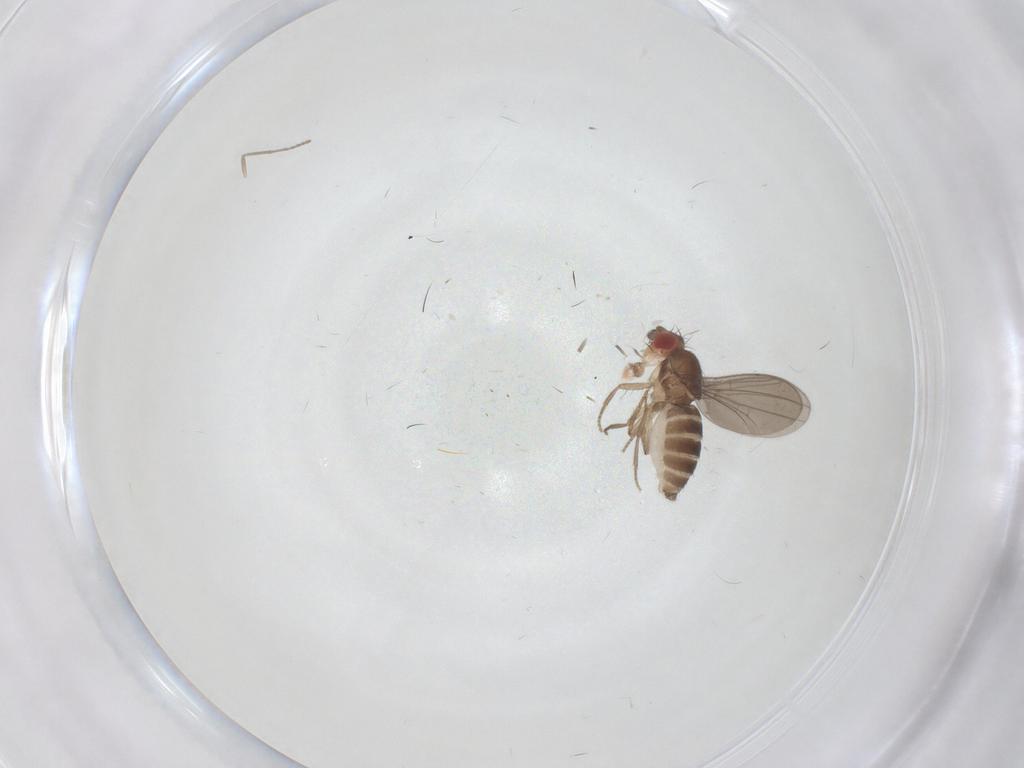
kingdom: Animalia
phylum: Arthropoda
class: Insecta
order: Diptera
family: Drosophilidae
